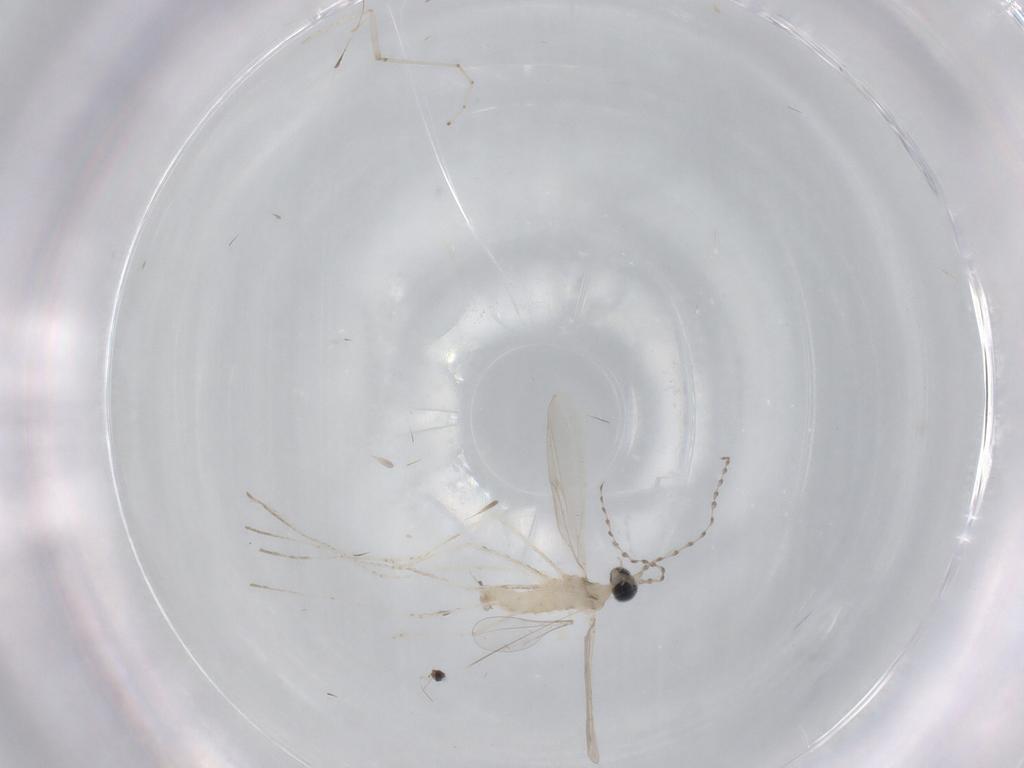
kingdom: Animalia
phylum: Arthropoda
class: Insecta
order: Diptera
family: Cecidomyiidae
